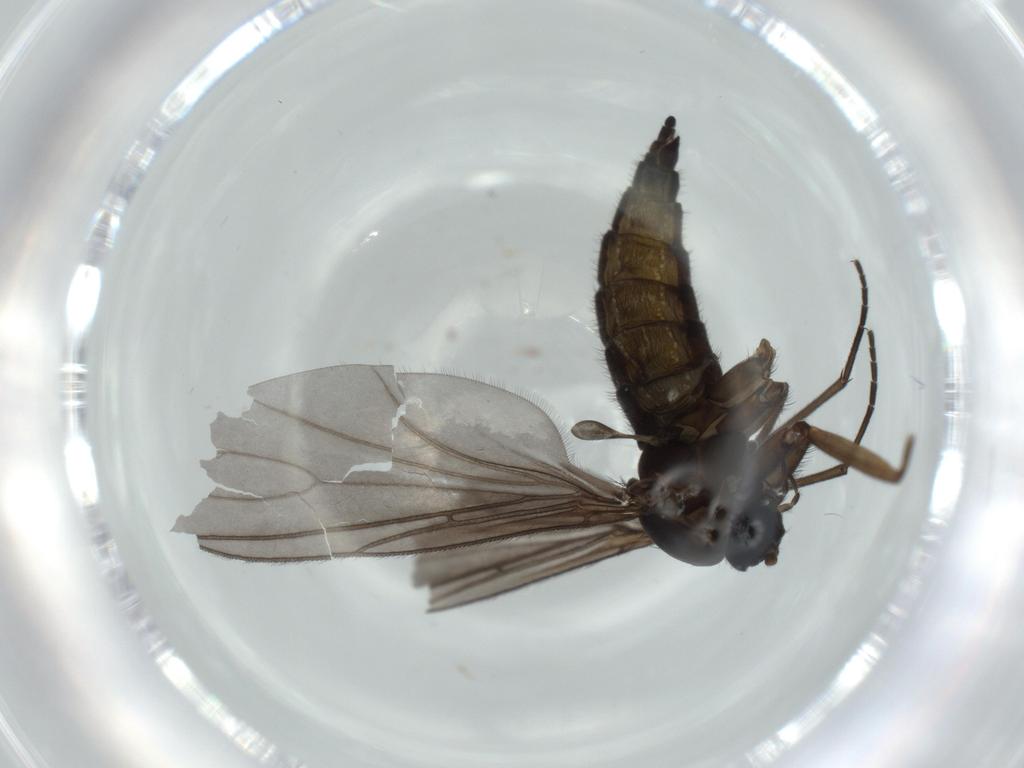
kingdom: Animalia
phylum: Arthropoda
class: Insecta
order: Diptera
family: Sciaridae
